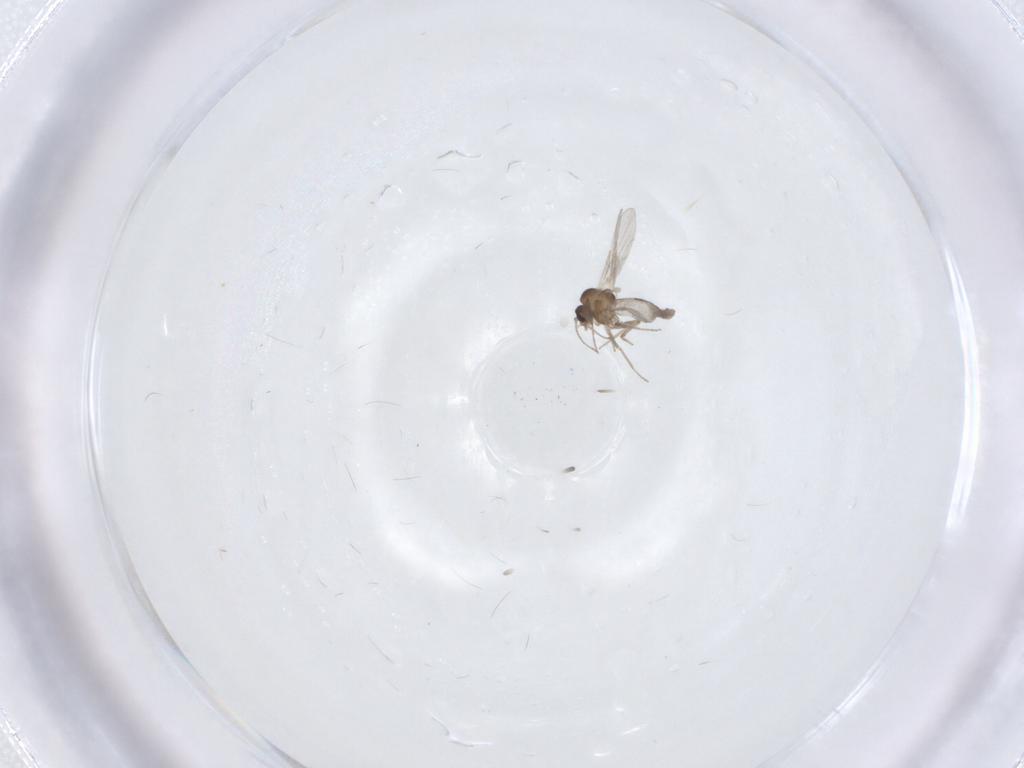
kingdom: Animalia
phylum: Arthropoda
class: Insecta
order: Diptera
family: Ceratopogonidae
